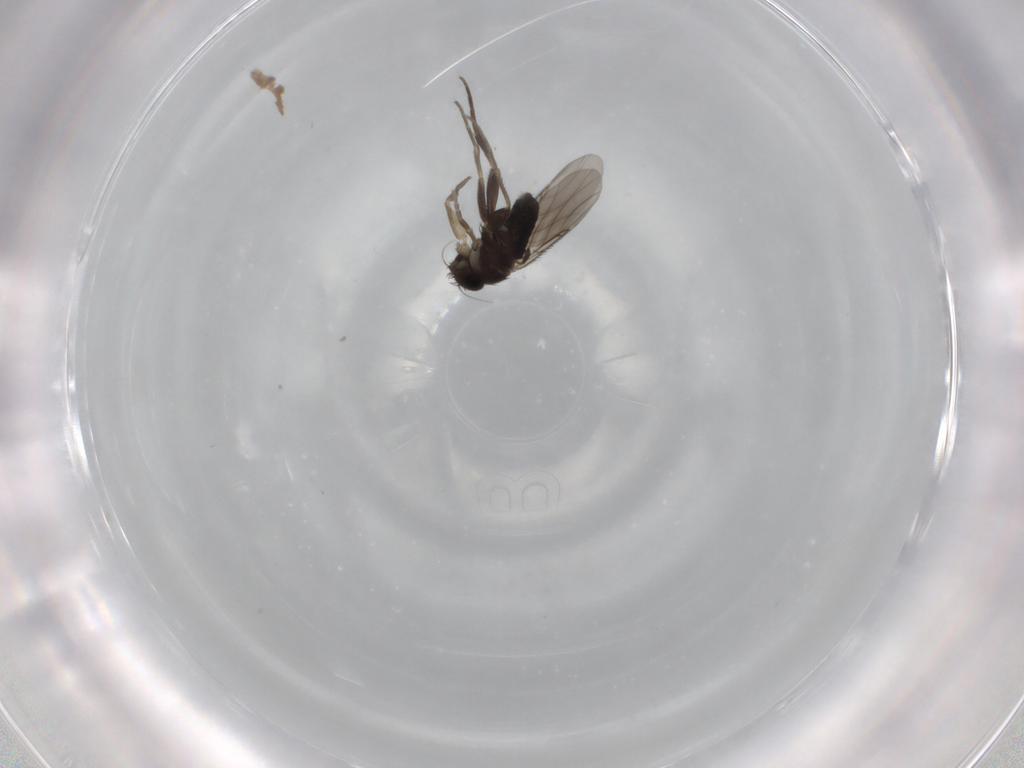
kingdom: Animalia
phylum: Arthropoda
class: Insecta
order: Diptera
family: Phoridae
